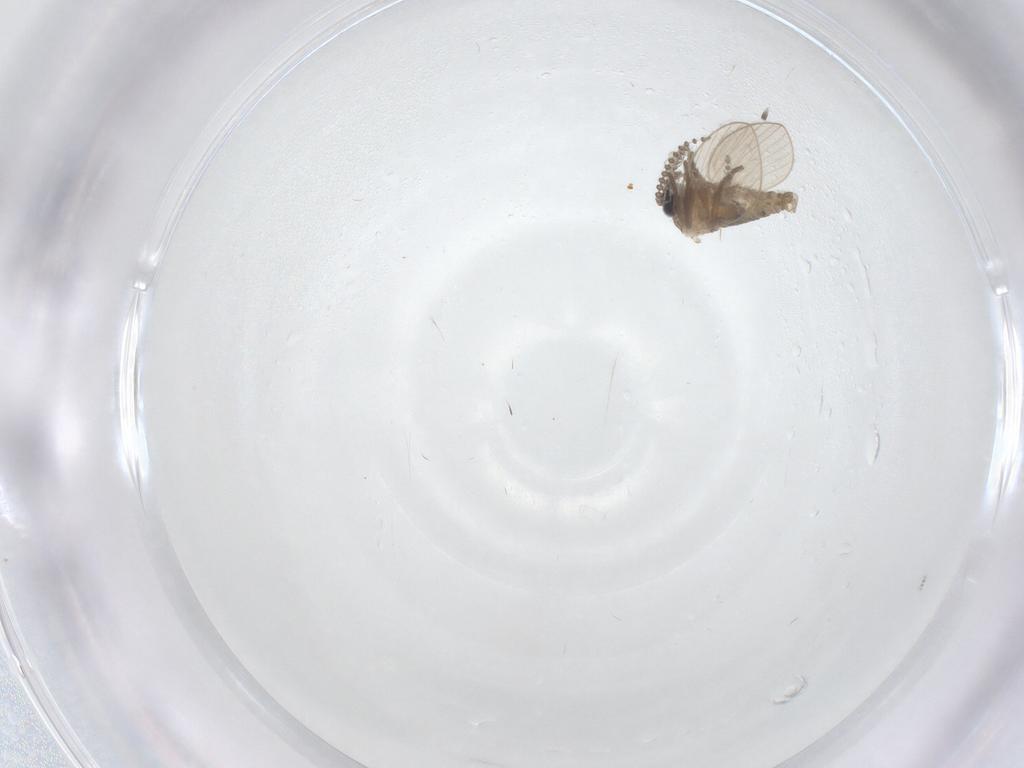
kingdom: Animalia
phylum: Arthropoda
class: Insecta
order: Diptera
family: Psychodidae
